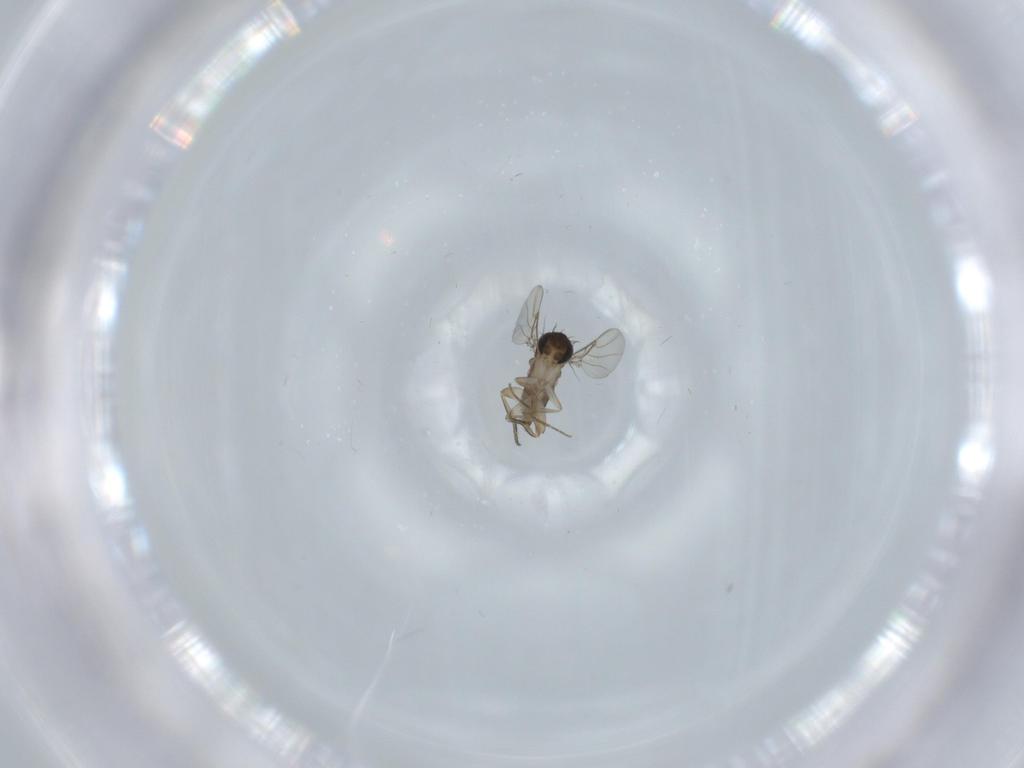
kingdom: Animalia
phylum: Arthropoda
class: Insecta
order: Diptera
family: Phoridae
